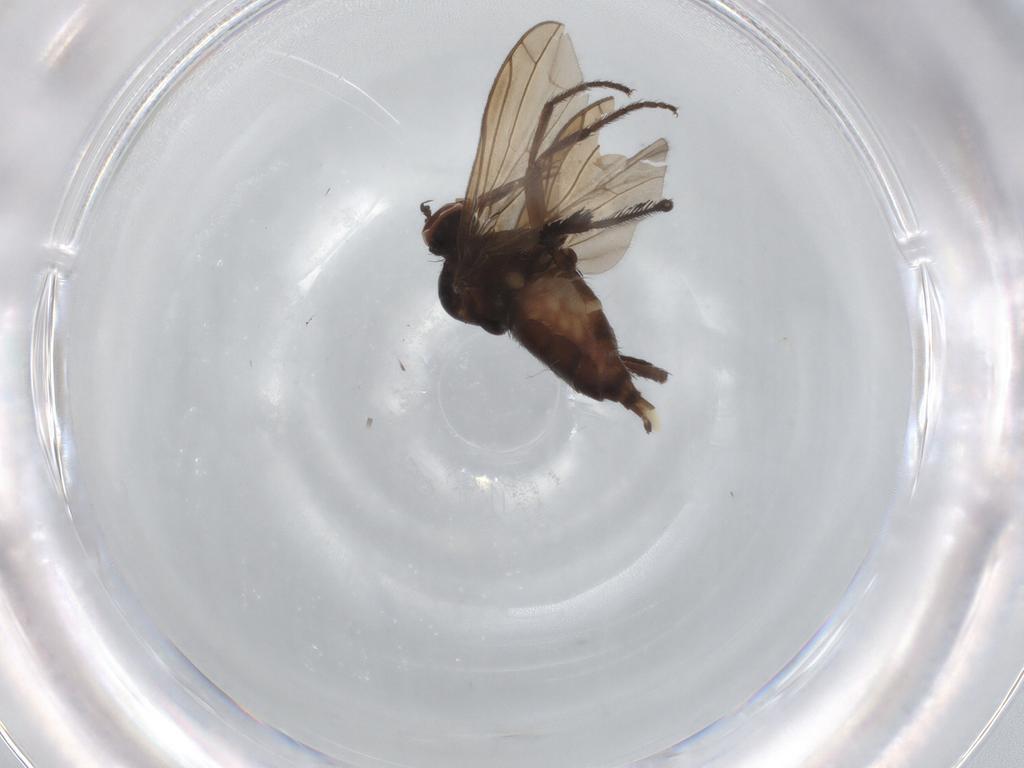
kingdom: Animalia
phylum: Arthropoda
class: Insecta
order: Diptera
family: Empididae
